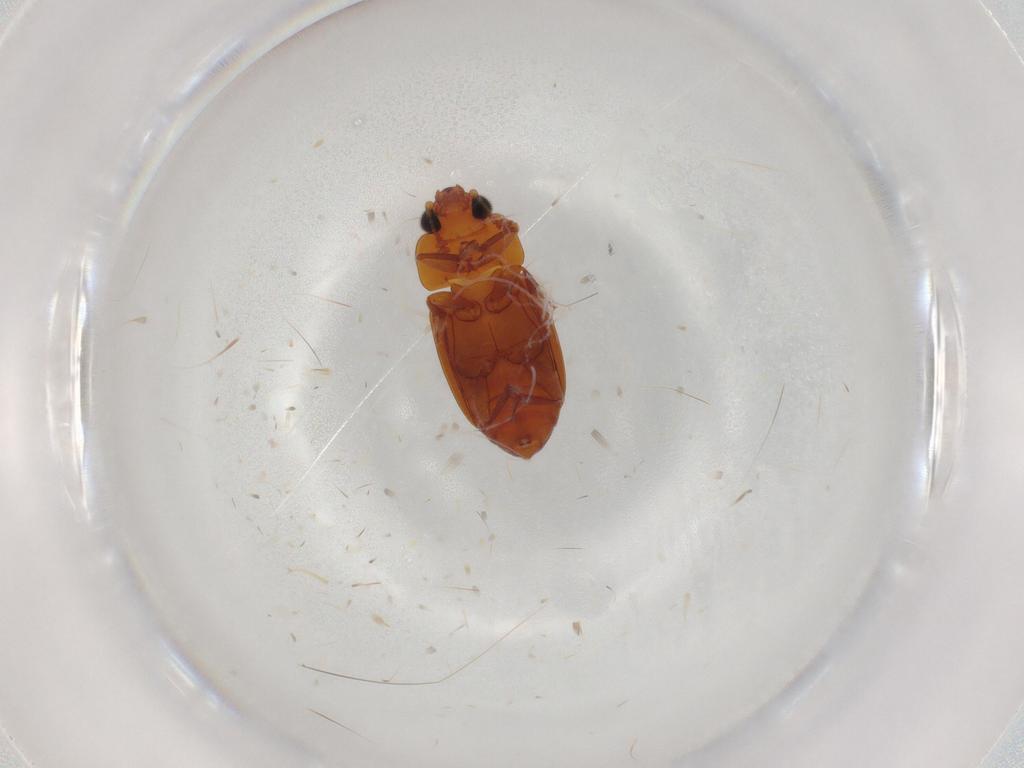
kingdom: Animalia
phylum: Arthropoda
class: Insecta
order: Coleoptera
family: Nitidulidae
